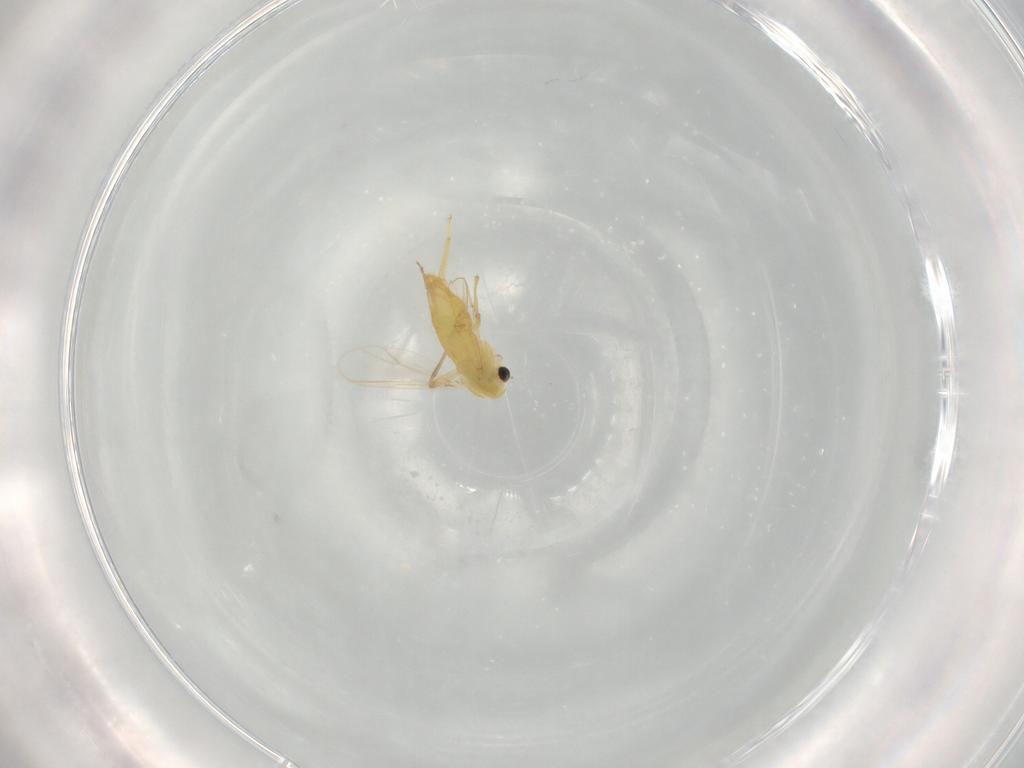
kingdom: Animalia
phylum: Arthropoda
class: Insecta
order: Diptera
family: Chironomidae
